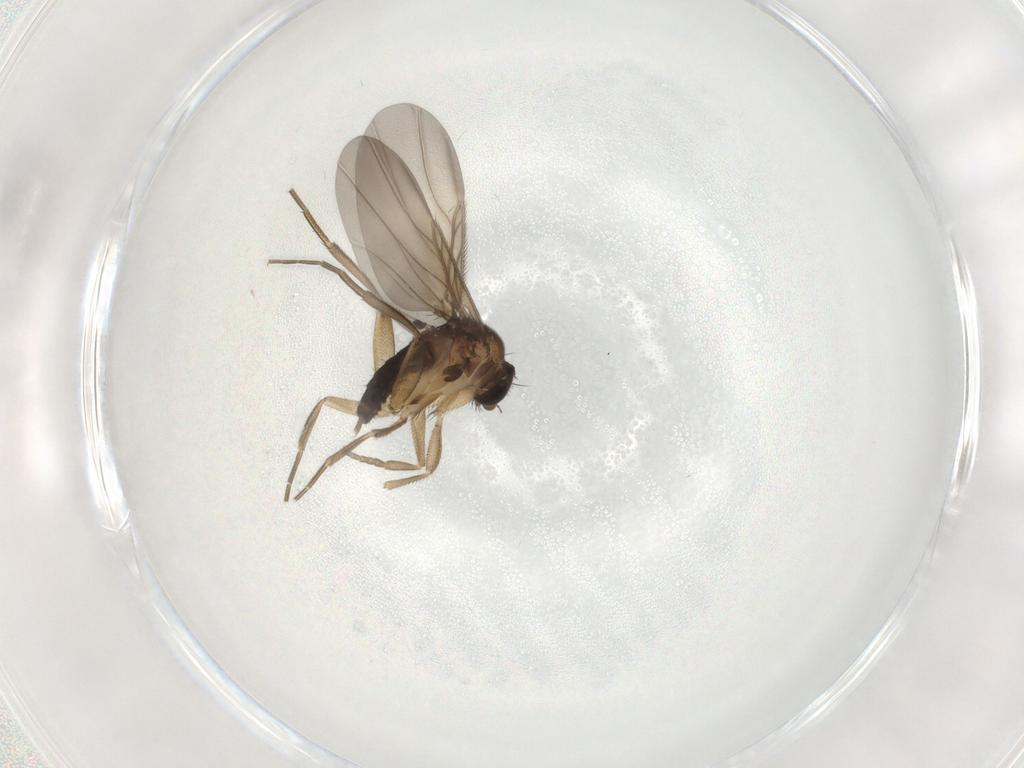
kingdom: Animalia
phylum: Arthropoda
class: Insecta
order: Diptera
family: Phoridae
